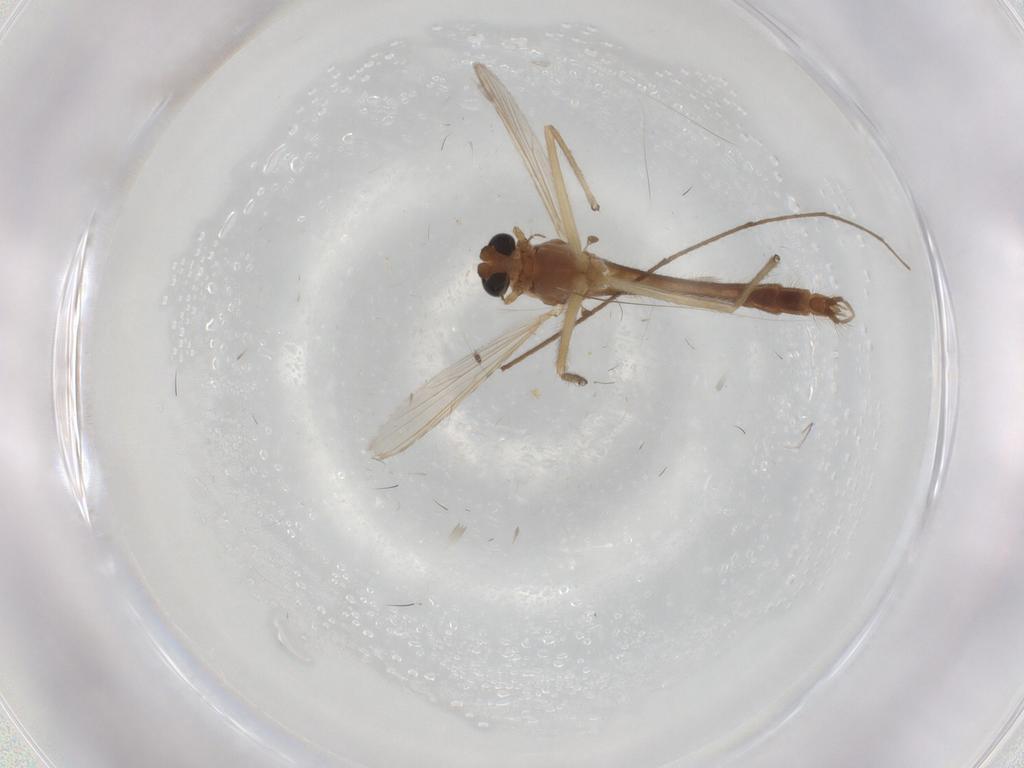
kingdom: Animalia
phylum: Arthropoda
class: Insecta
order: Diptera
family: Chironomidae
